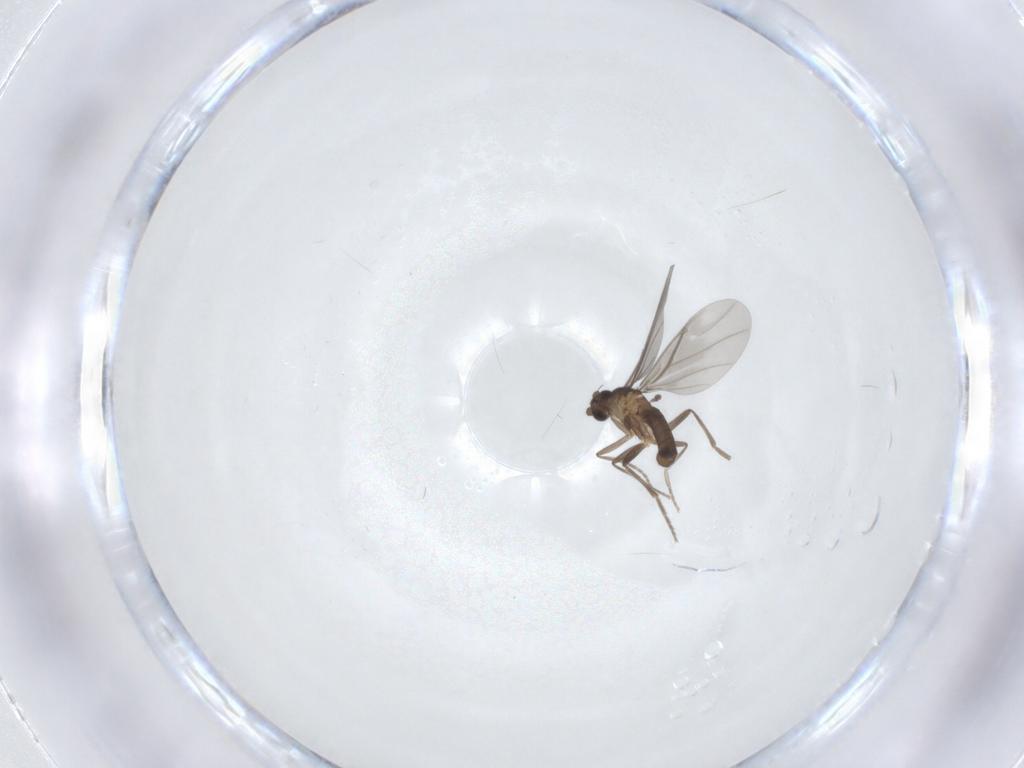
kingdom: Animalia
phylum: Arthropoda
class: Insecta
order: Diptera
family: Phoridae
